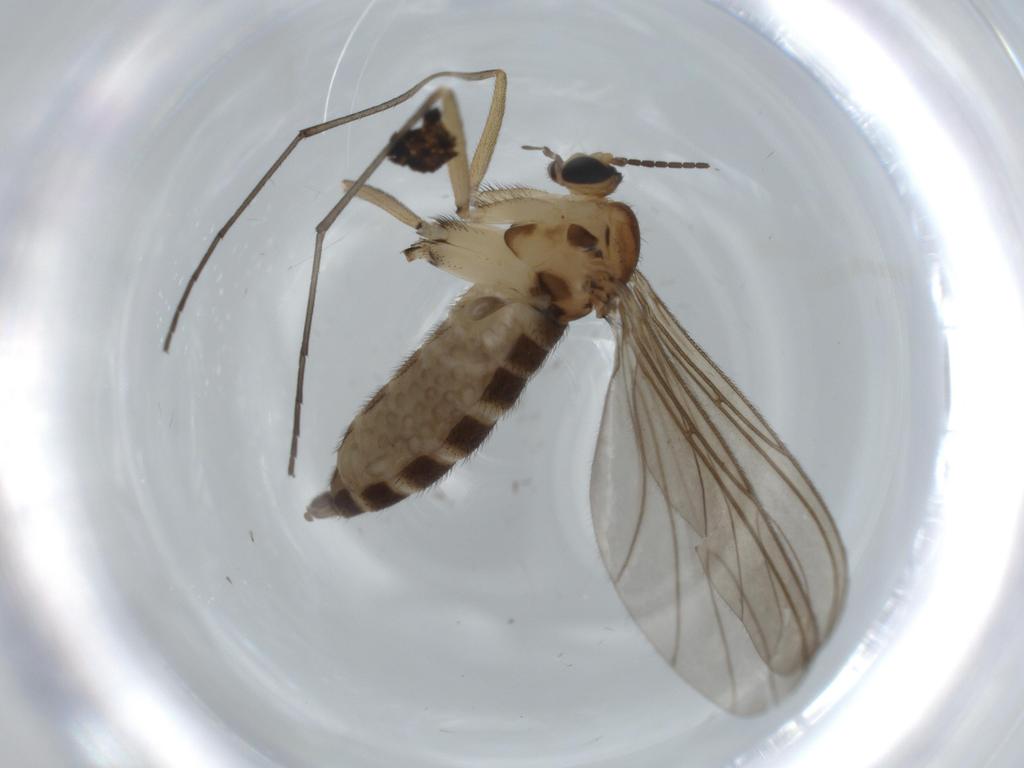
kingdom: Animalia
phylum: Arthropoda
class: Insecta
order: Diptera
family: Sciaridae
